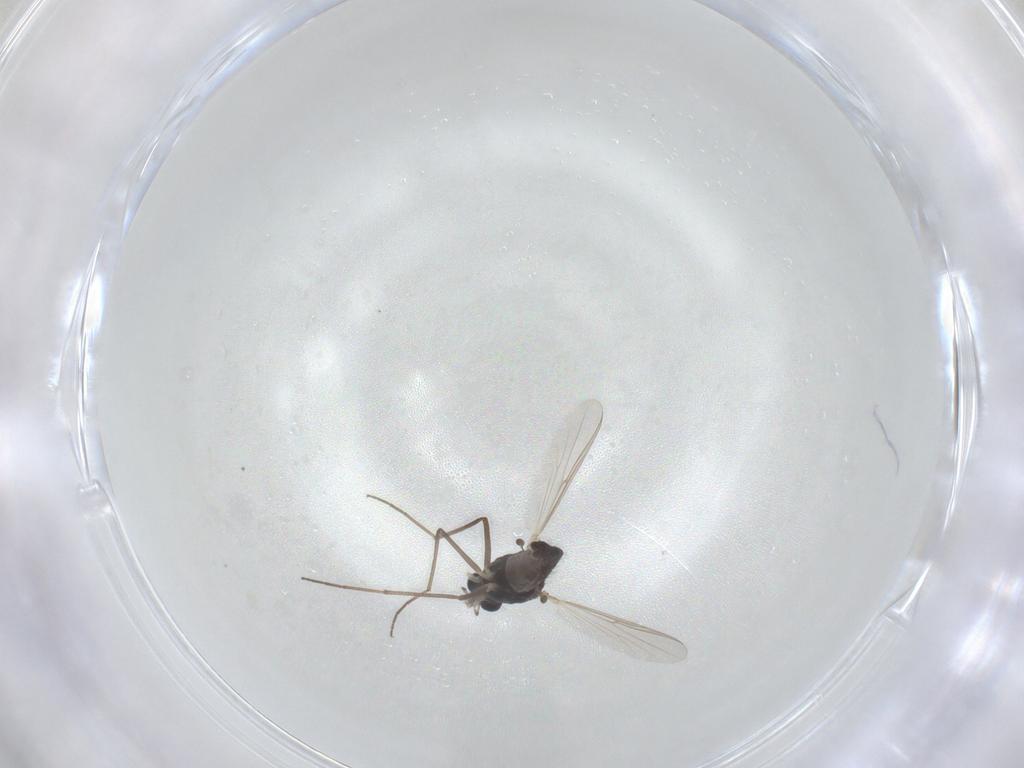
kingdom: Animalia
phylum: Arthropoda
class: Insecta
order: Diptera
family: Chironomidae
